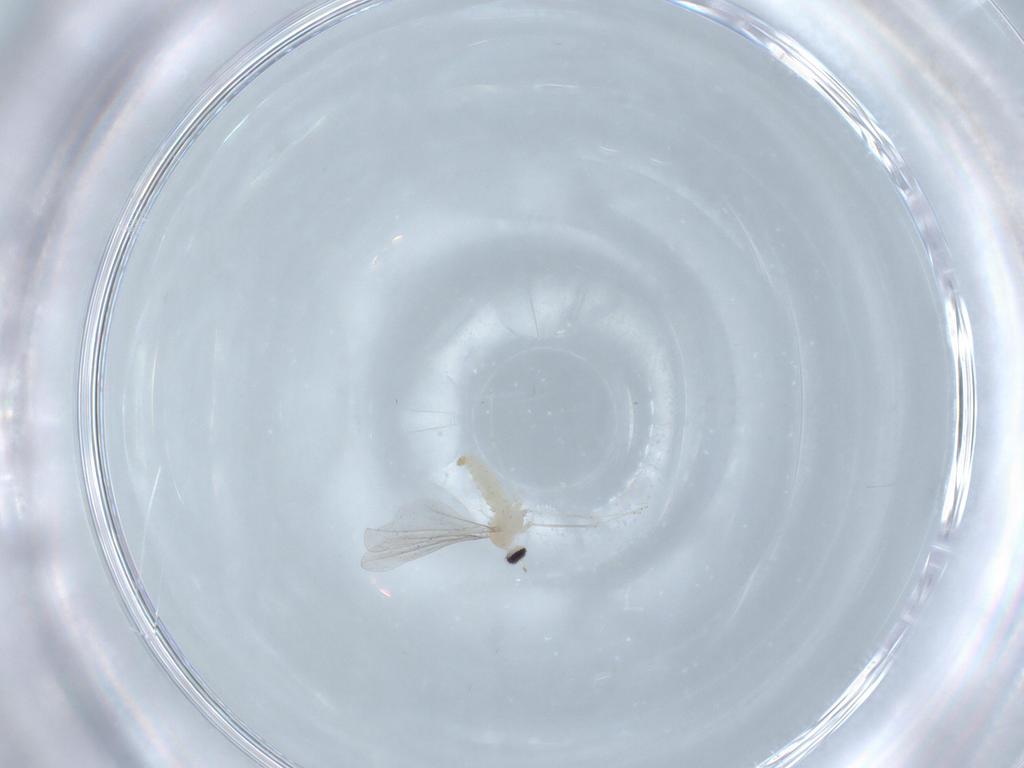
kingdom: Animalia
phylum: Arthropoda
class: Insecta
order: Diptera
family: Cecidomyiidae
